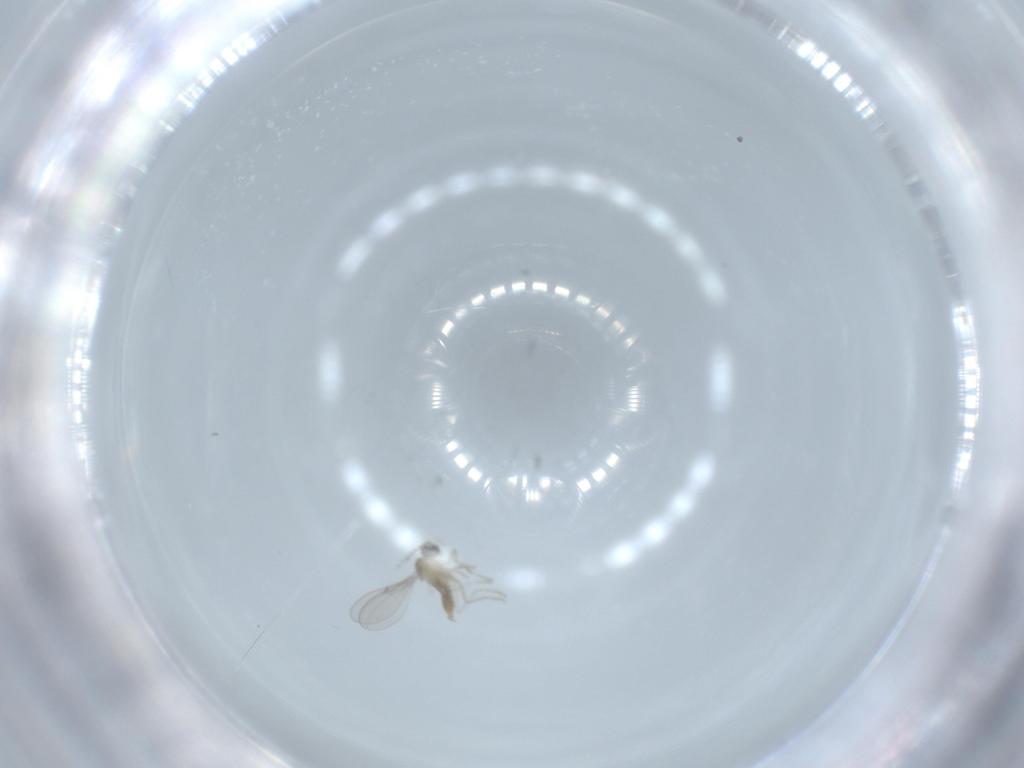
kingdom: Animalia
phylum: Arthropoda
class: Insecta
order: Diptera
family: Cecidomyiidae
